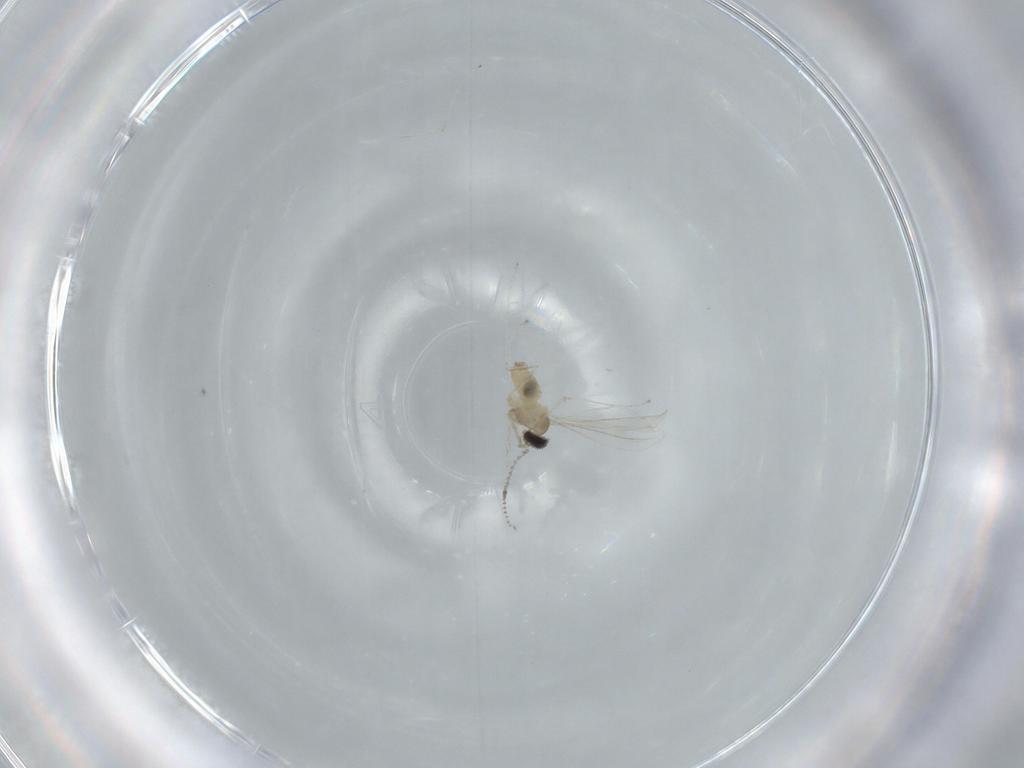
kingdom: Animalia
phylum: Arthropoda
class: Insecta
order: Diptera
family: Cecidomyiidae
